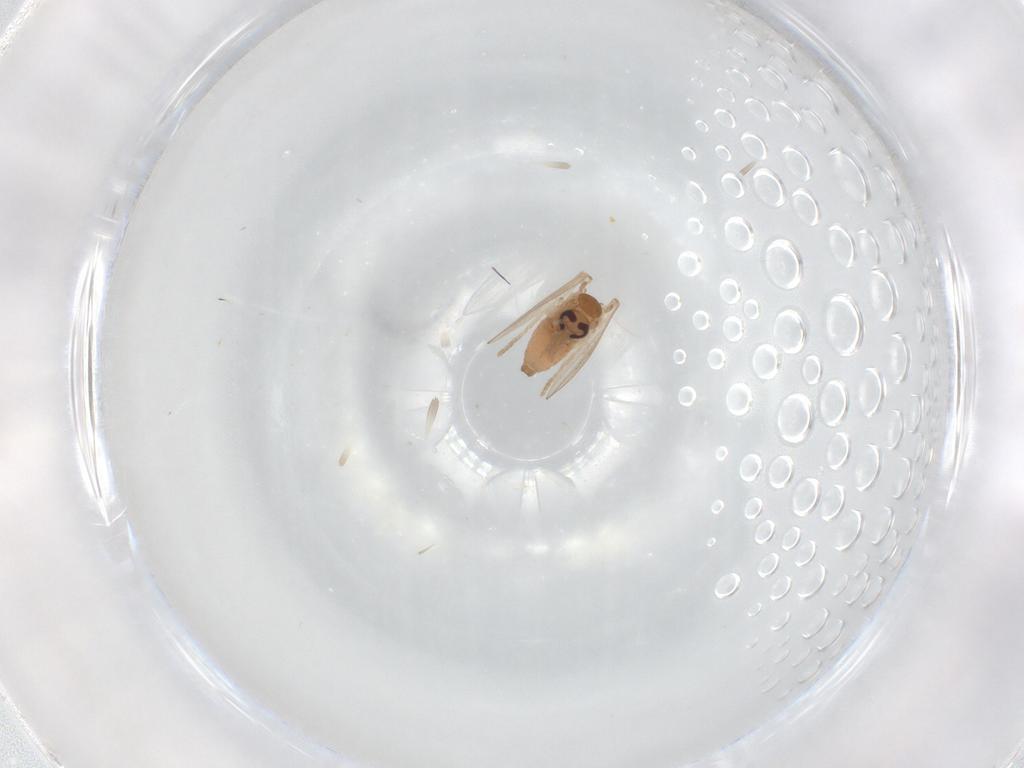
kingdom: Animalia
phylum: Arthropoda
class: Insecta
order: Diptera
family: Psychodidae
